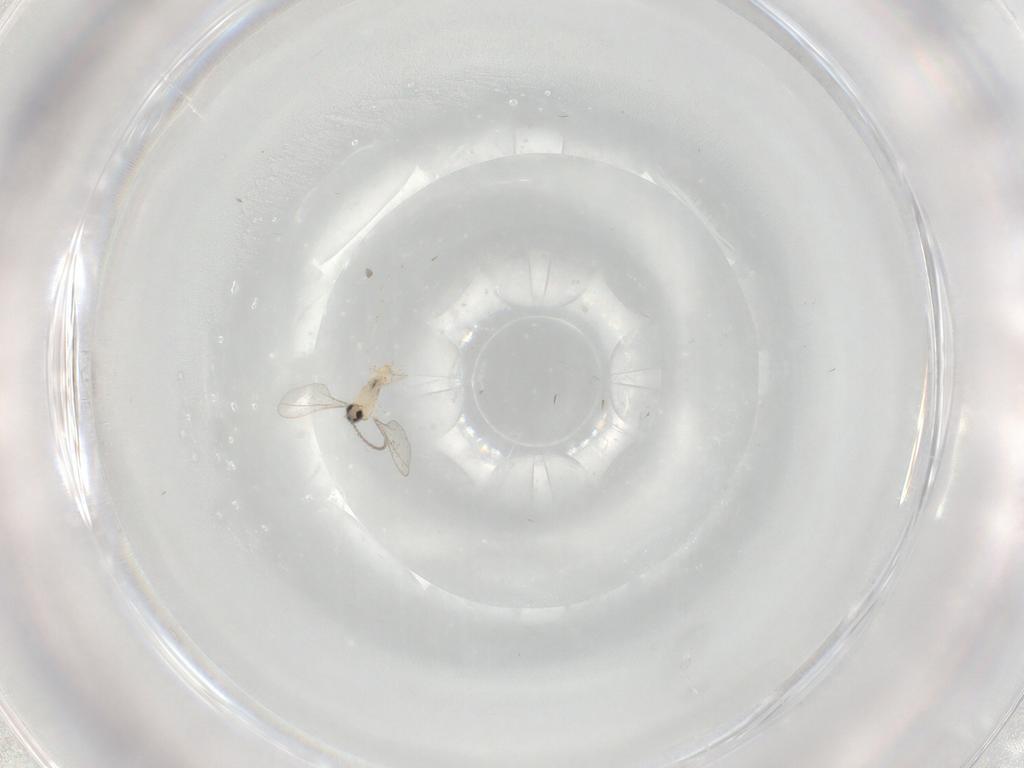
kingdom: Animalia
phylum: Arthropoda
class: Insecta
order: Diptera
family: Cecidomyiidae
